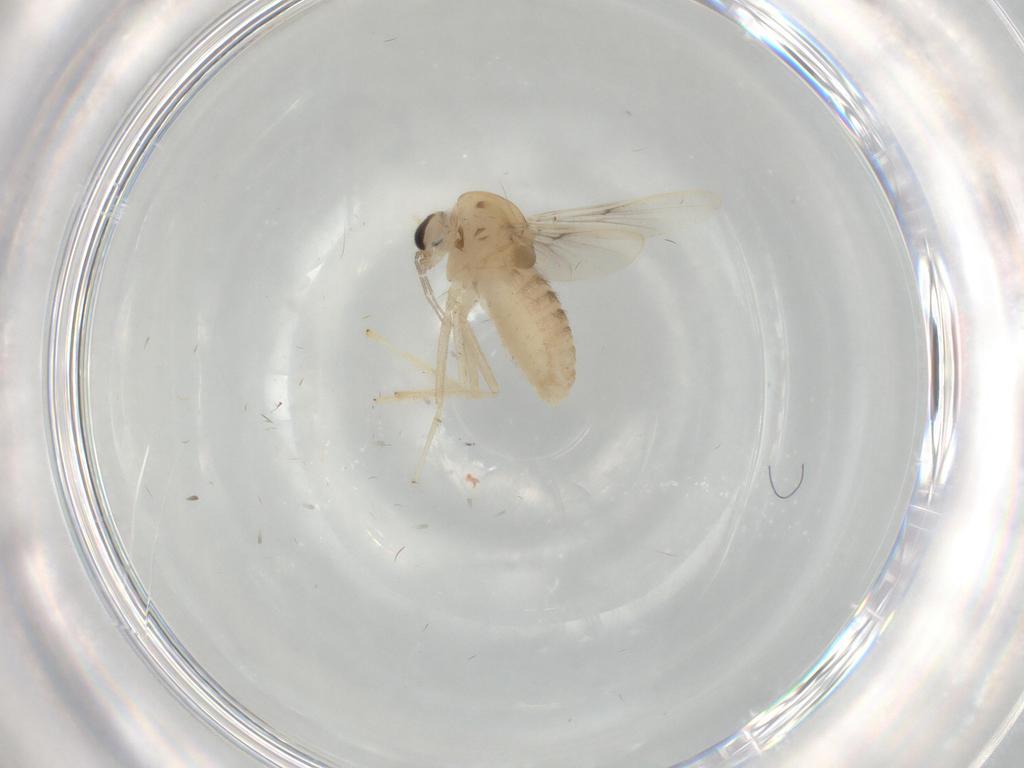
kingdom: Animalia
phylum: Arthropoda
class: Insecta
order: Diptera
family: Chironomidae
